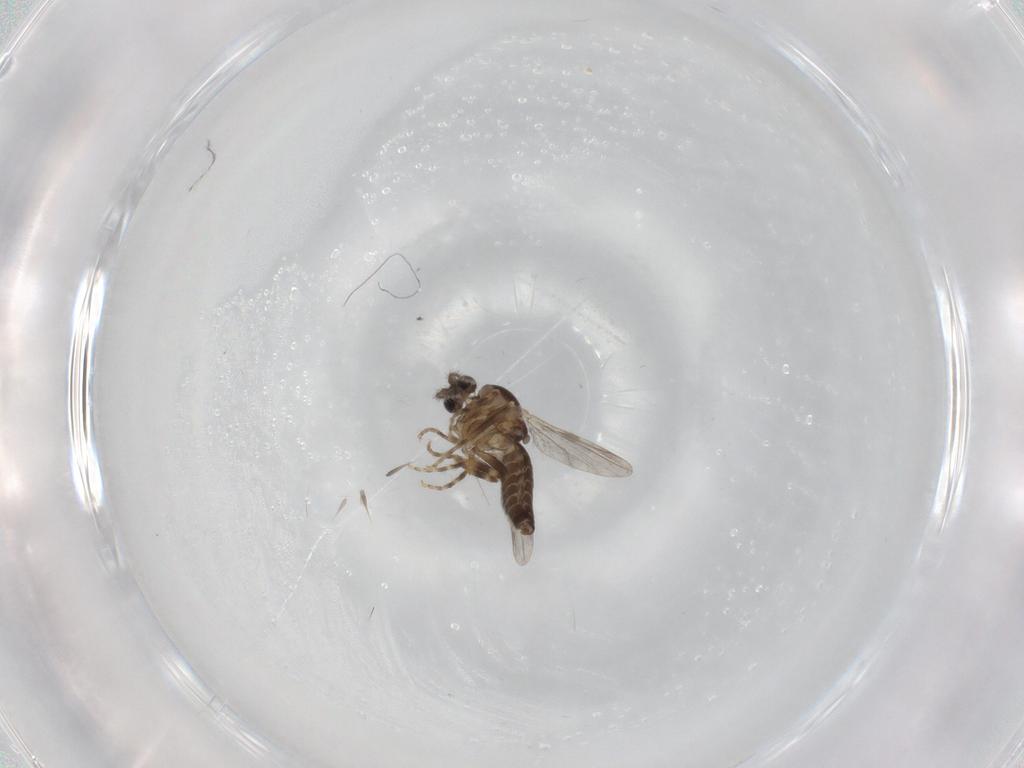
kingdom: Animalia
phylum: Arthropoda
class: Insecta
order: Diptera
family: Ceratopogonidae
